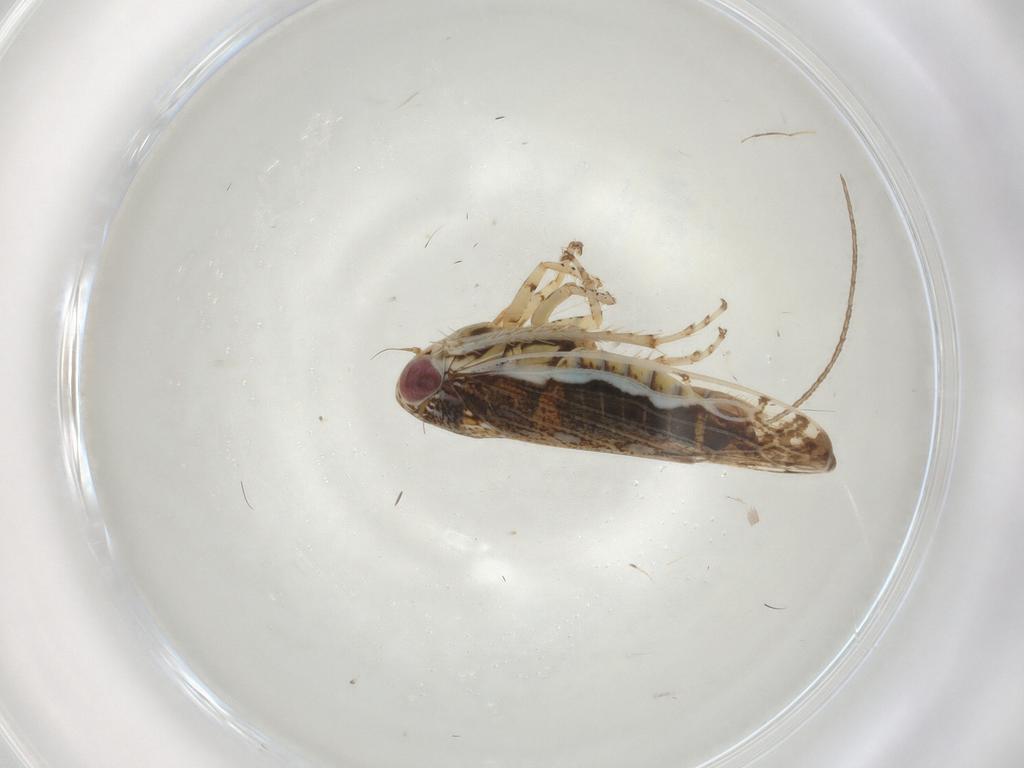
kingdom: Animalia
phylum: Arthropoda
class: Insecta
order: Hemiptera
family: Cicadellidae
